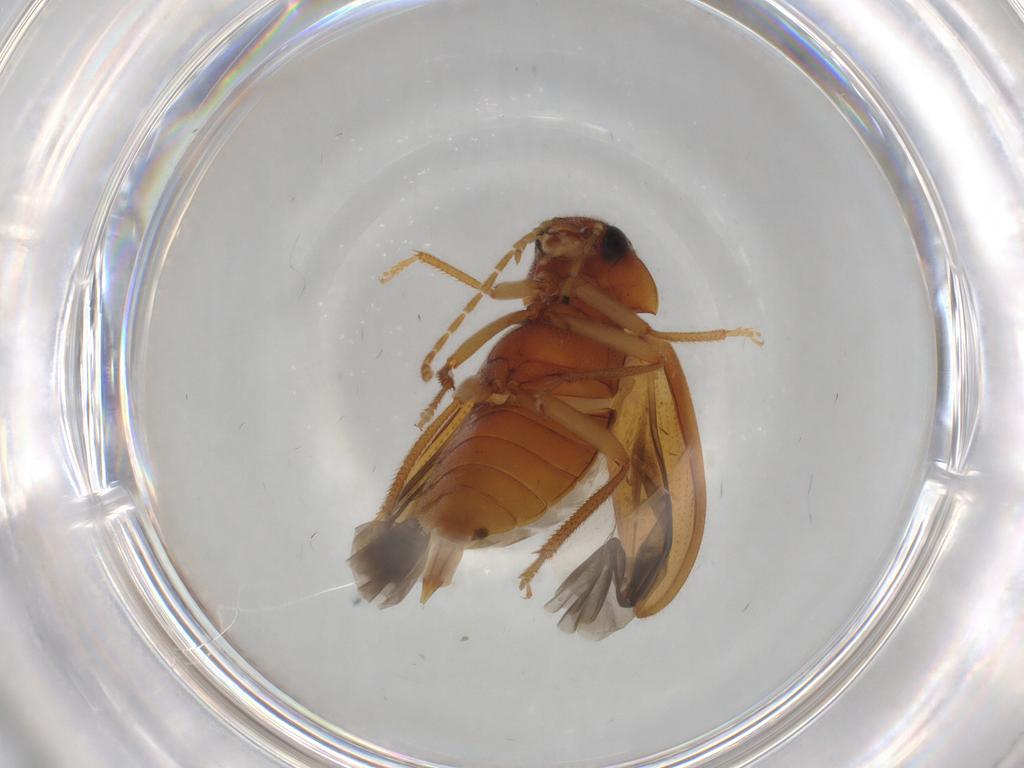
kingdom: Animalia
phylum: Arthropoda
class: Insecta
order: Coleoptera
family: Ptilodactylidae
